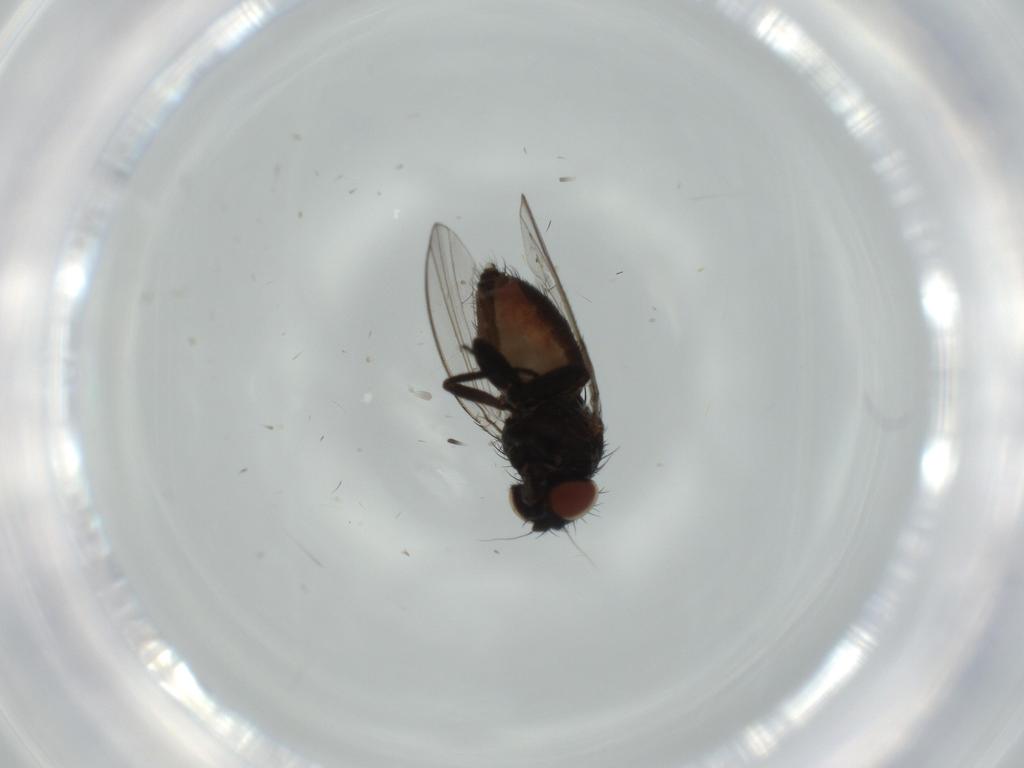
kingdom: Animalia
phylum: Arthropoda
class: Insecta
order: Diptera
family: Milichiidae
